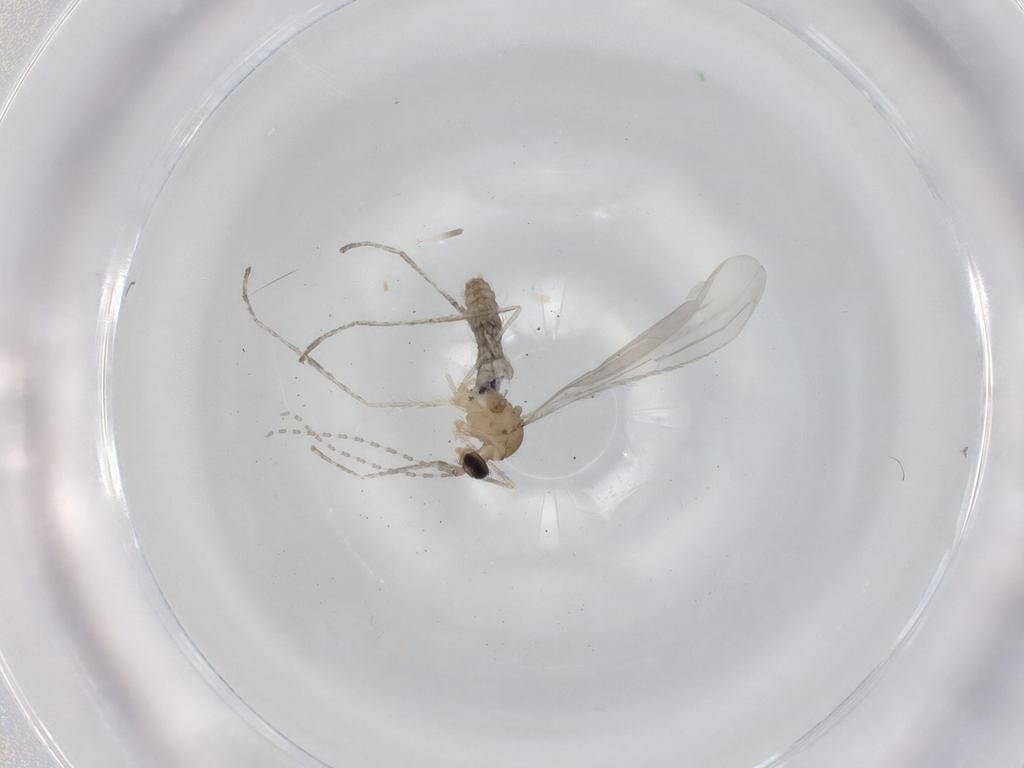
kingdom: Animalia
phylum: Arthropoda
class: Insecta
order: Diptera
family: Cecidomyiidae
